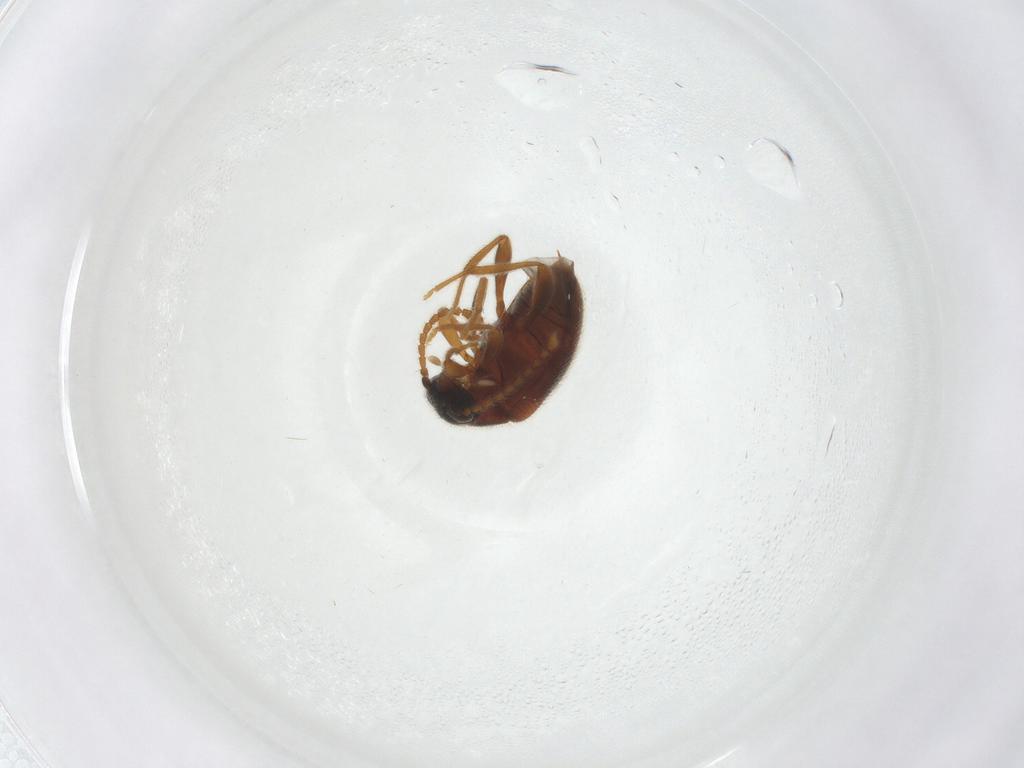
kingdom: Animalia
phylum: Arthropoda
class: Insecta
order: Coleoptera
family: Aderidae
